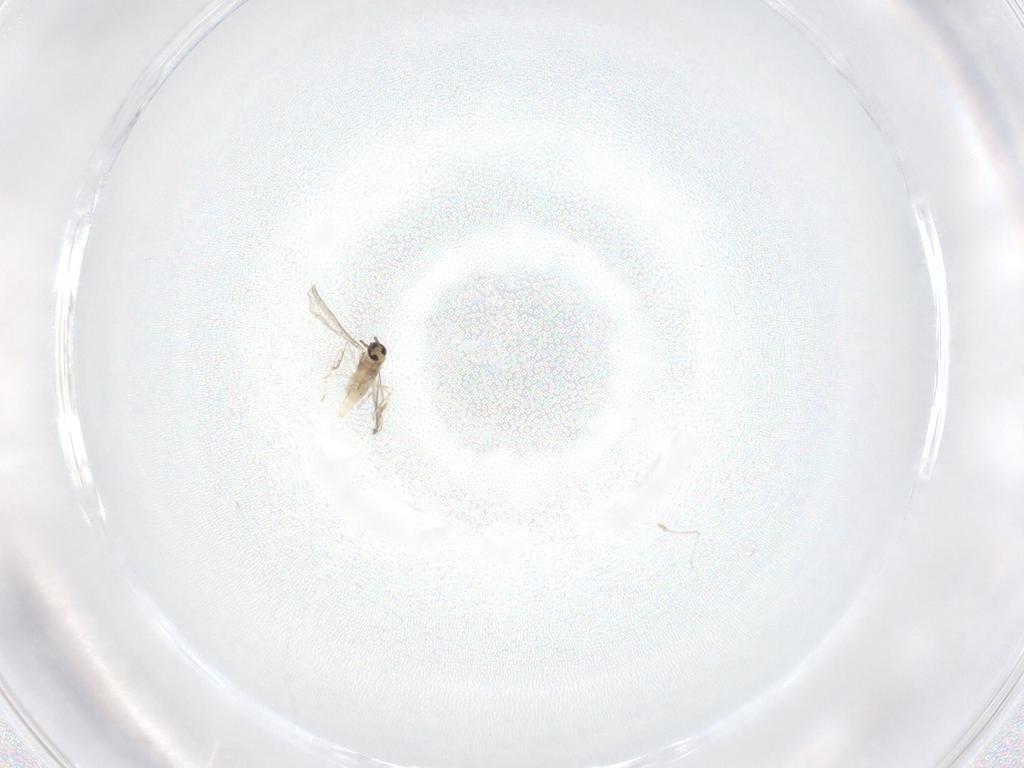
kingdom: Animalia
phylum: Arthropoda
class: Insecta
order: Diptera
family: Cecidomyiidae
